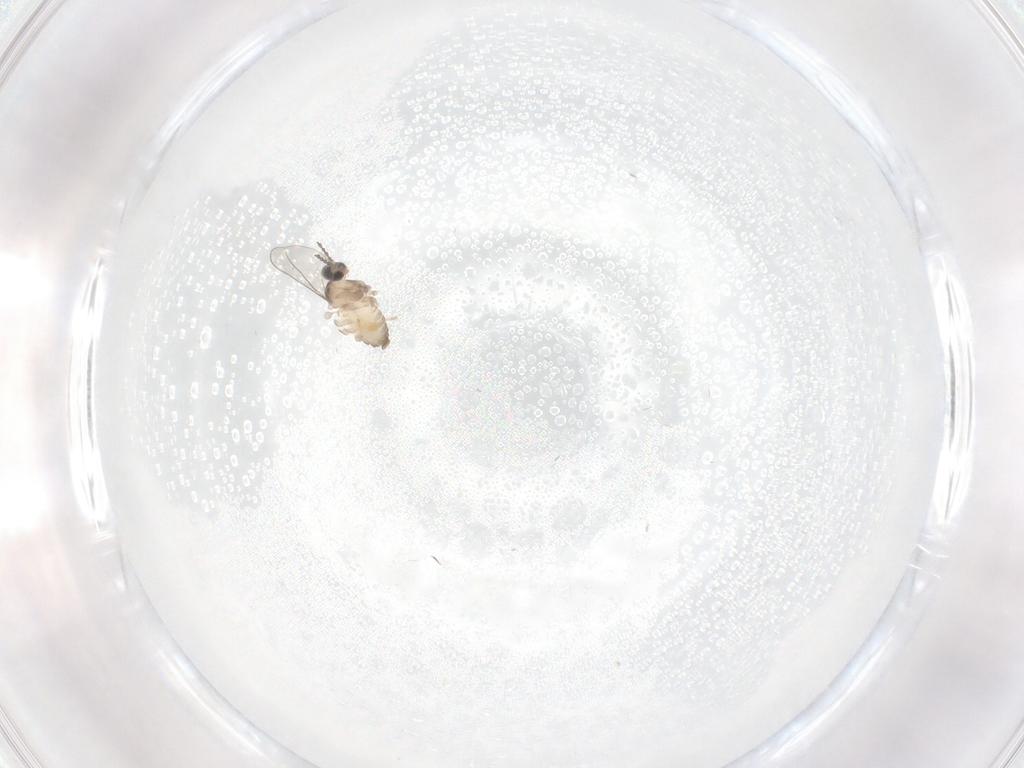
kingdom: Animalia
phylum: Arthropoda
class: Insecta
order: Diptera
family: Cecidomyiidae
